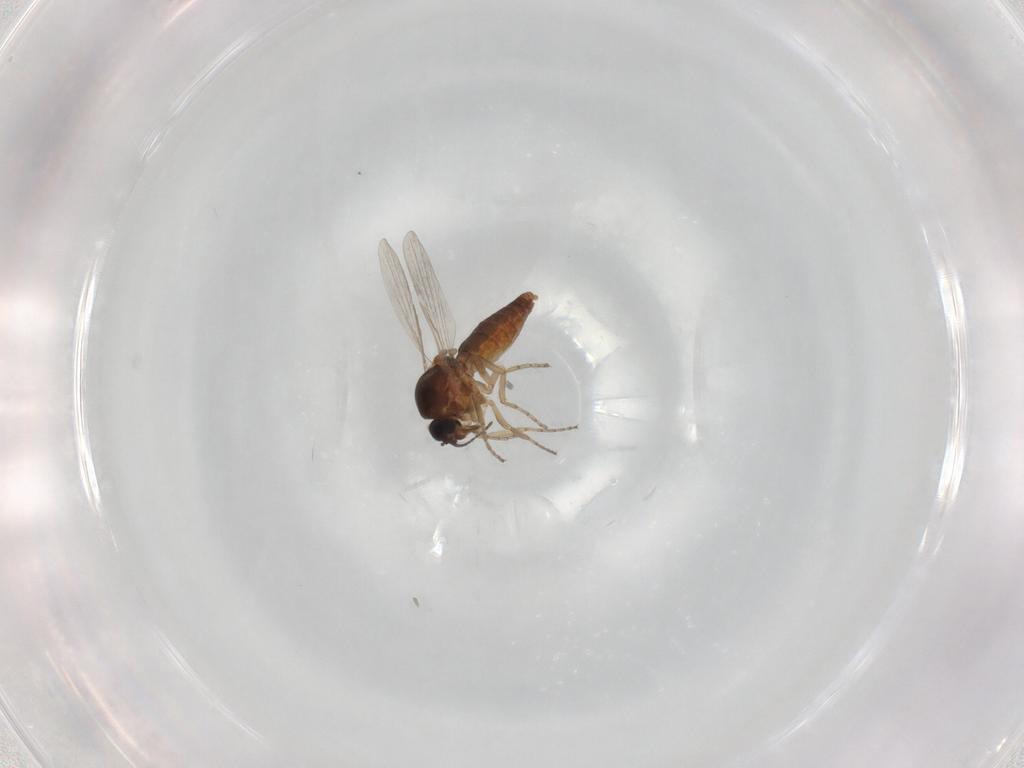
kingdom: Animalia
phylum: Arthropoda
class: Insecta
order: Diptera
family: Ceratopogonidae
